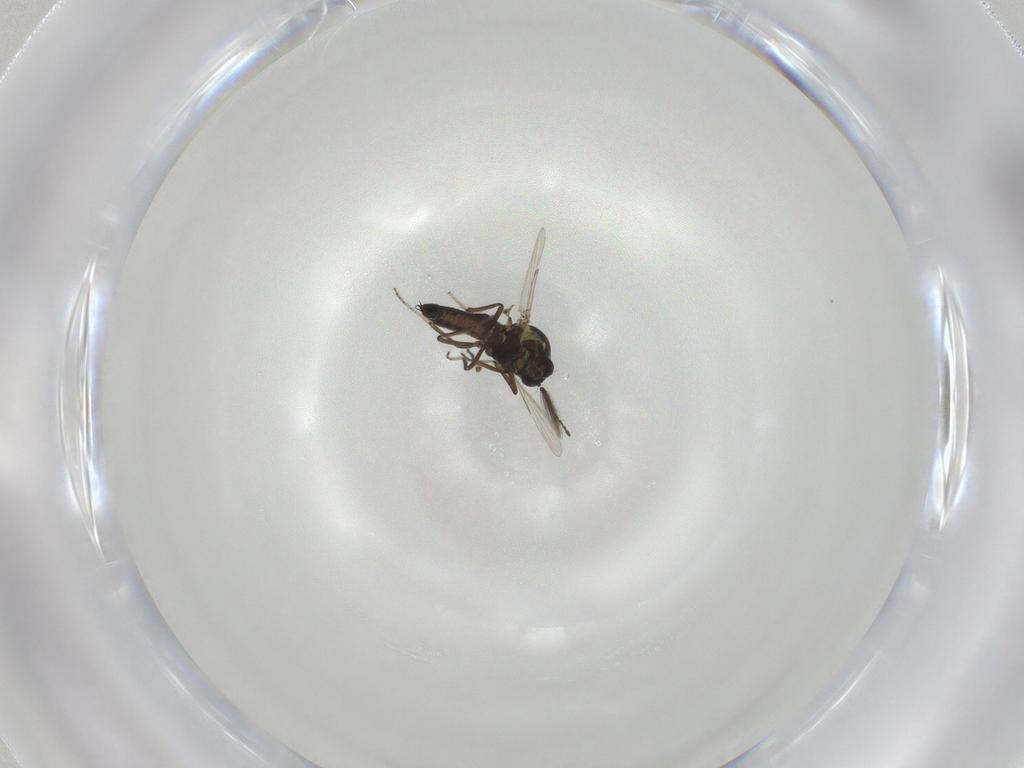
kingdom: Animalia
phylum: Arthropoda
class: Insecta
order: Diptera
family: Ceratopogonidae
